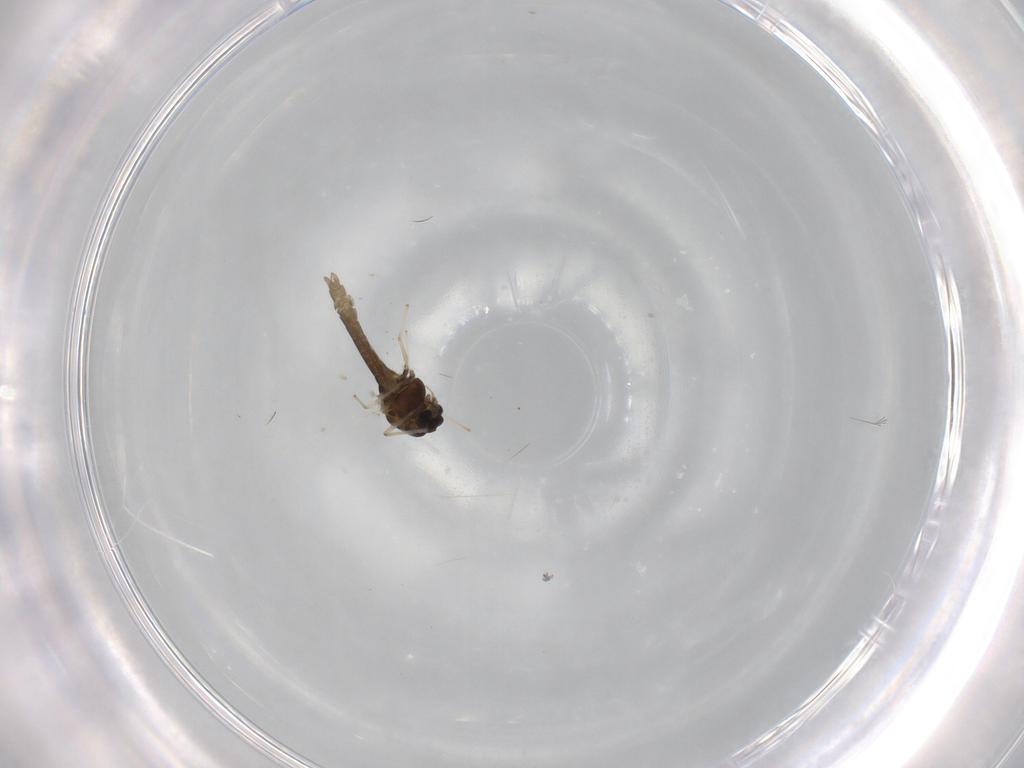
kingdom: Animalia
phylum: Arthropoda
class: Insecta
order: Diptera
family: Chironomidae
